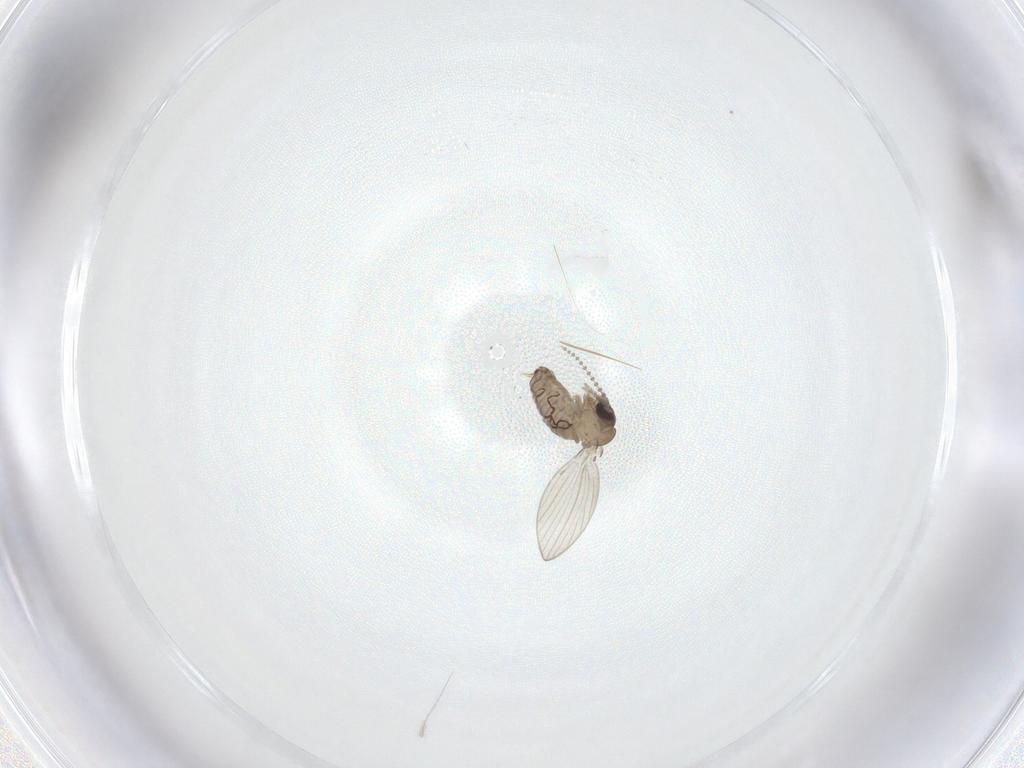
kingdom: Animalia
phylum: Arthropoda
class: Insecta
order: Diptera
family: Psychodidae
